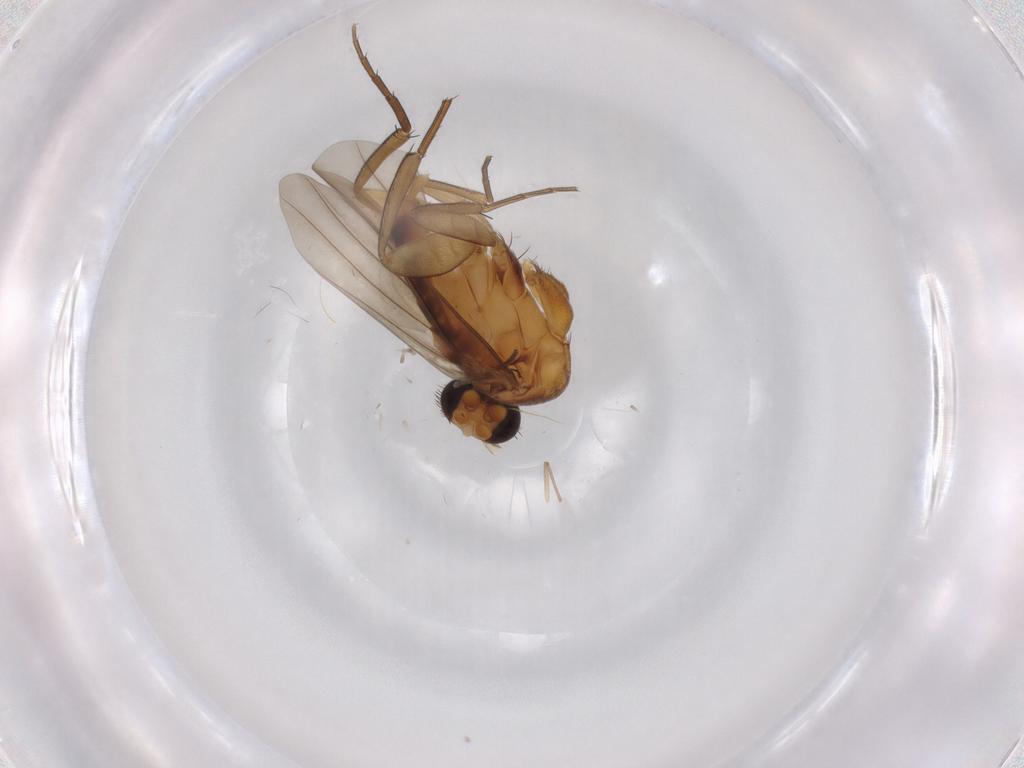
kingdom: Animalia
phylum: Arthropoda
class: Insecta
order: Diptera
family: Phoridae
